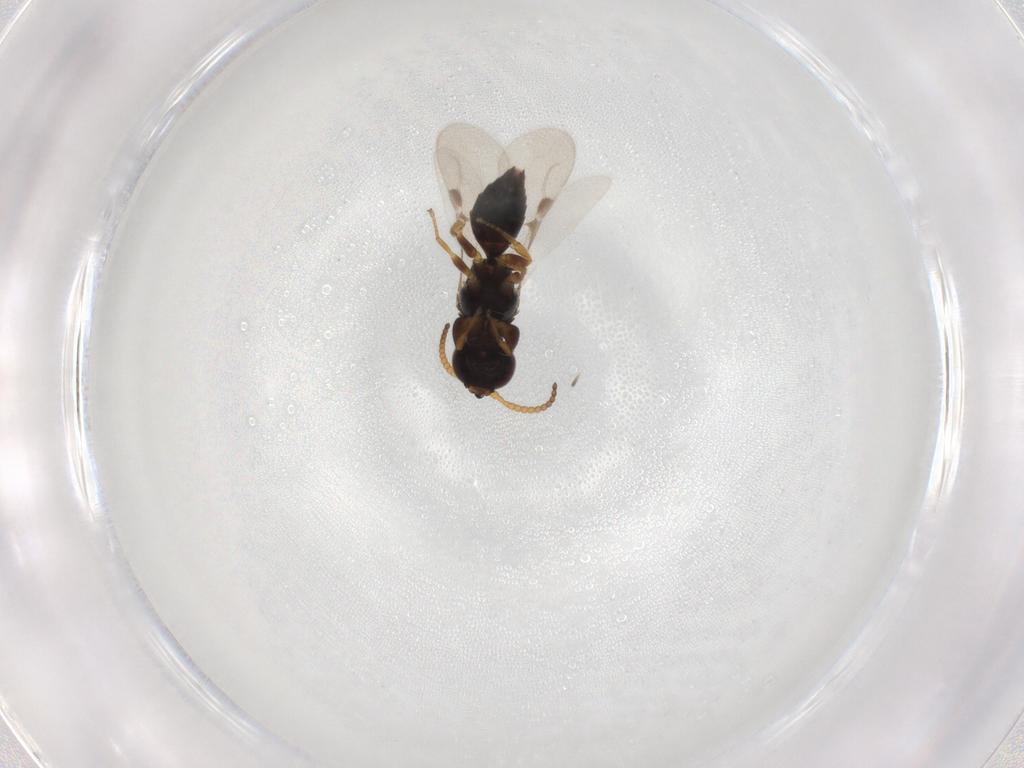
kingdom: Animalia
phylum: Arthropoda
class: Insecta
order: Hymenoptera
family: Bethylidae
